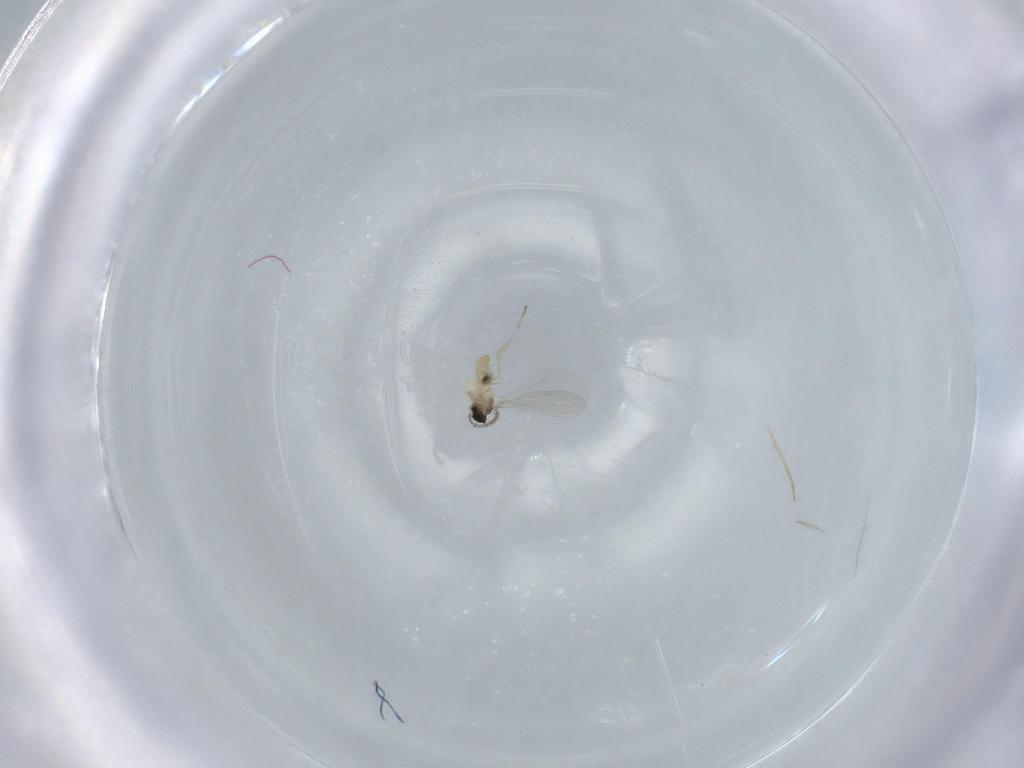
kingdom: Animalia
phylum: Arthropoda
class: Insecta
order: Diptera
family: Cecidomyiidae
